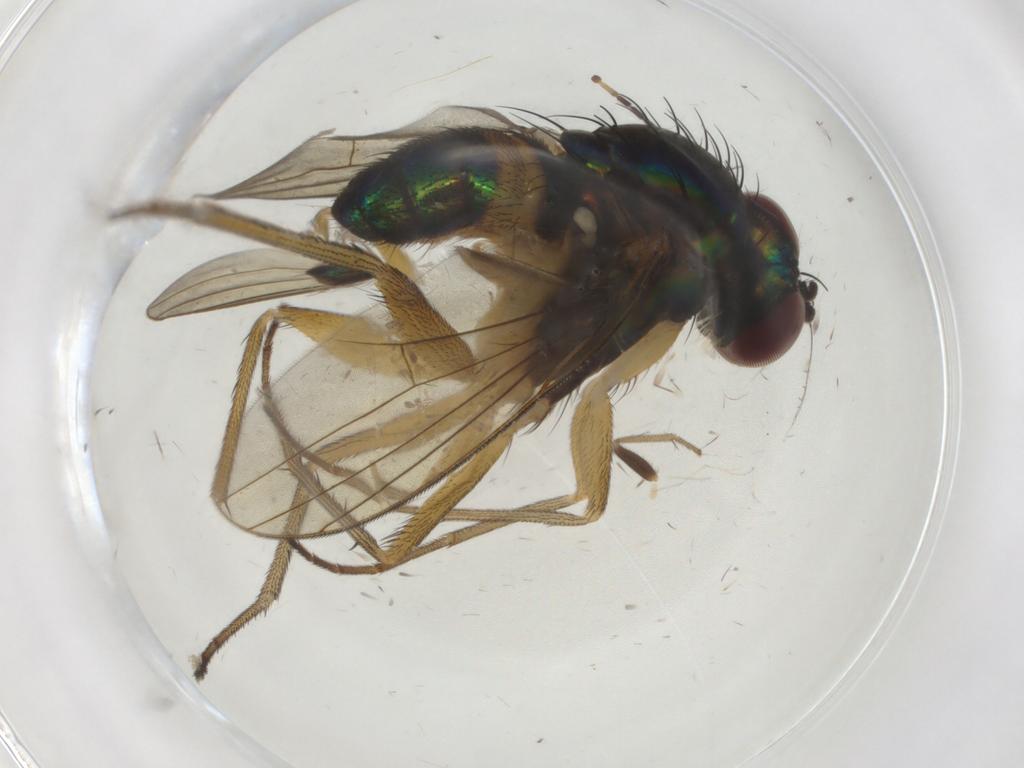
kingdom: Animalia
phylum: Arthropoda
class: Insecta
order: Diptera
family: Dolichopodidae
